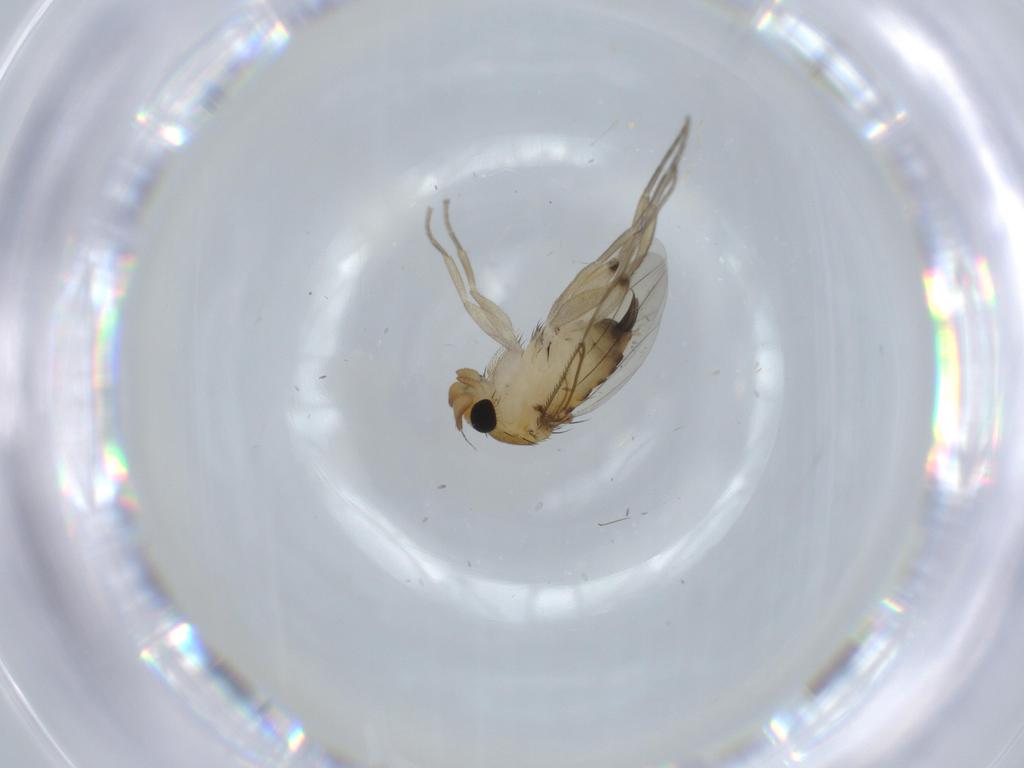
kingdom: Animalia
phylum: Arthropoda
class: Insecta
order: Diptera
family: Phoridae
